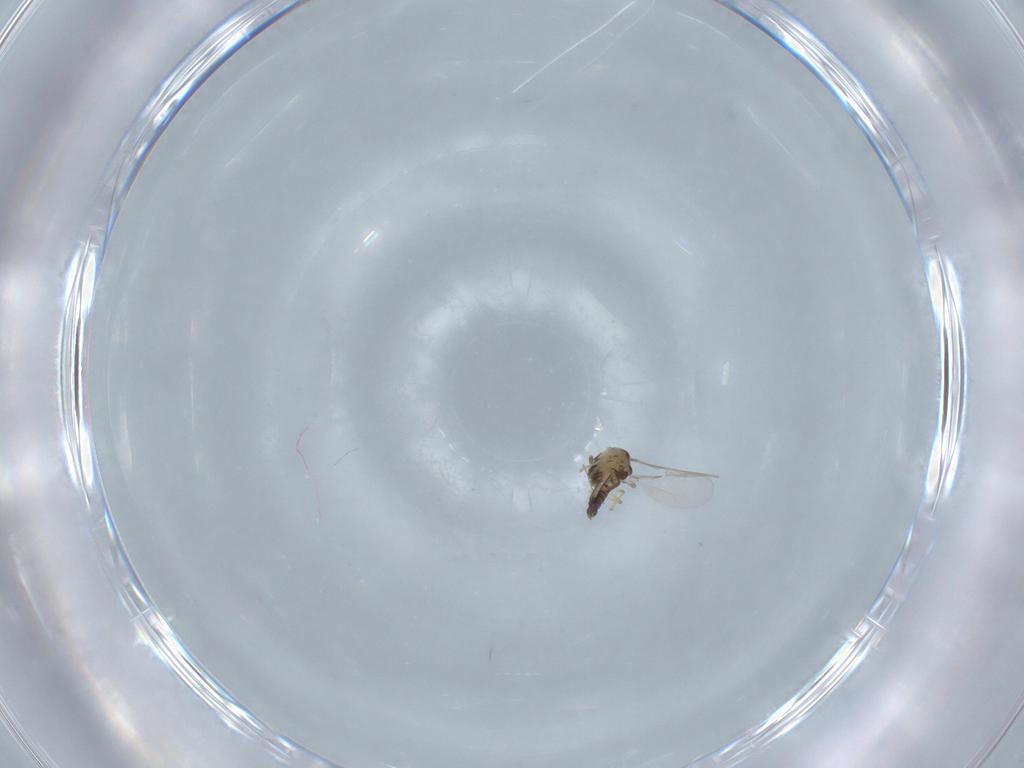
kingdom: Animalia
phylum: Arthropoda
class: Insecta
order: Diptera
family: Chironomidae
